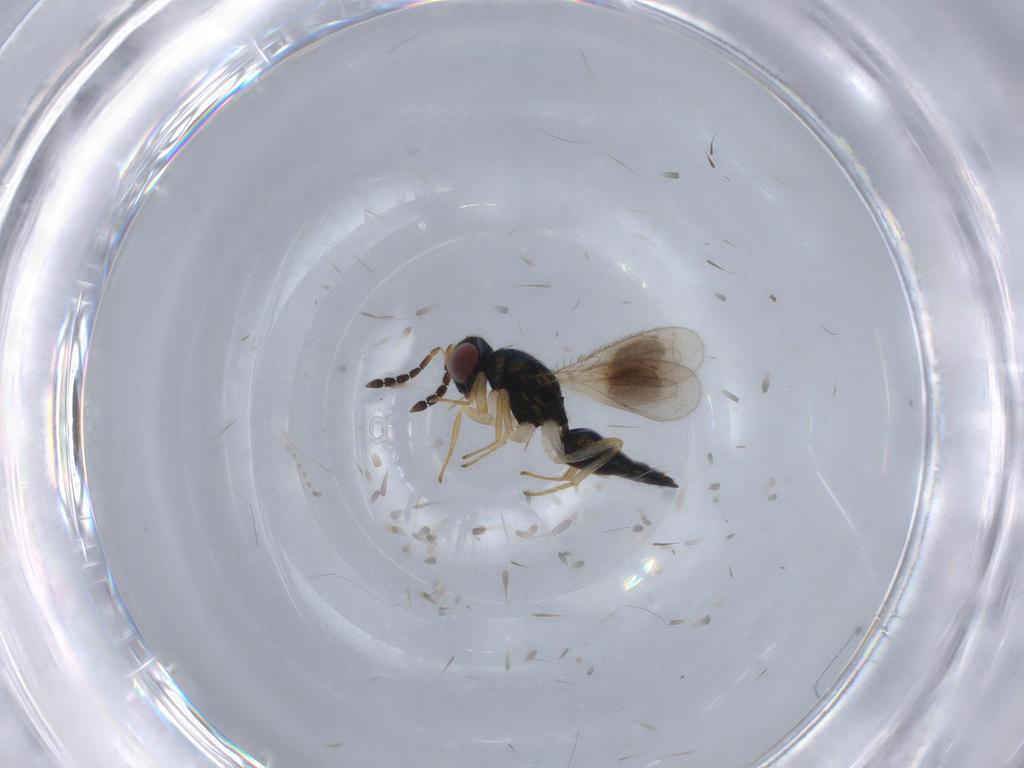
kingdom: Animalia
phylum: Arthropoda
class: Insecta
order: Hymenoptera
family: Eulophidae
